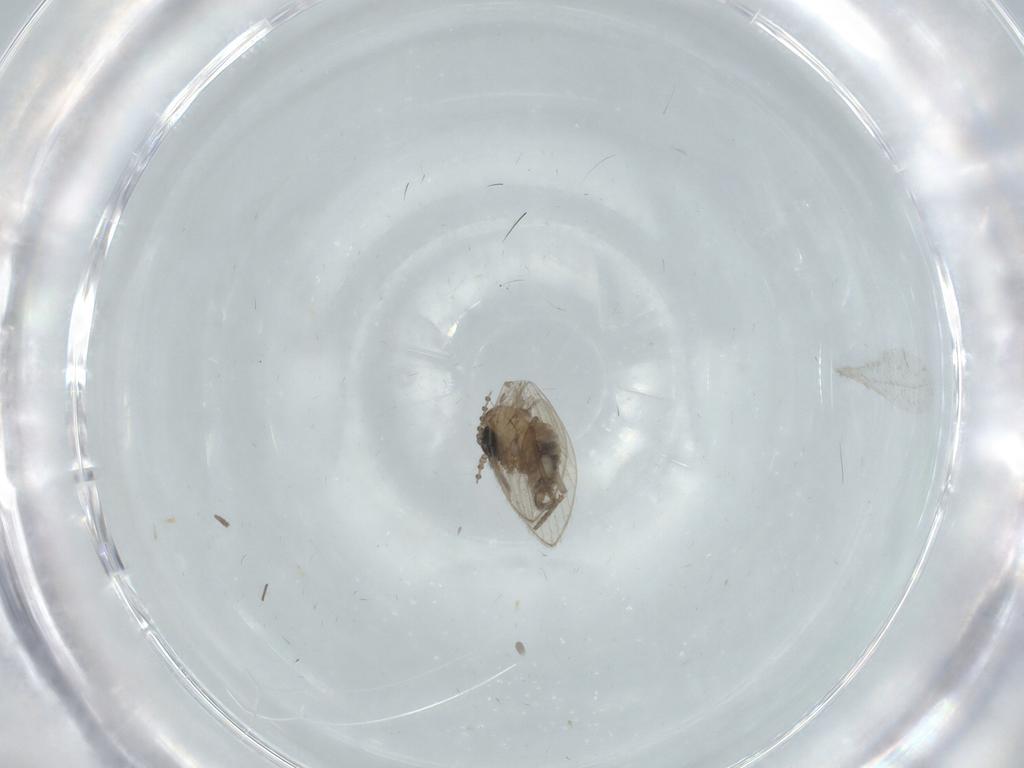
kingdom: Animalia
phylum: Arthropoda
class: Insecta
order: Diptera
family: Psychodidae
